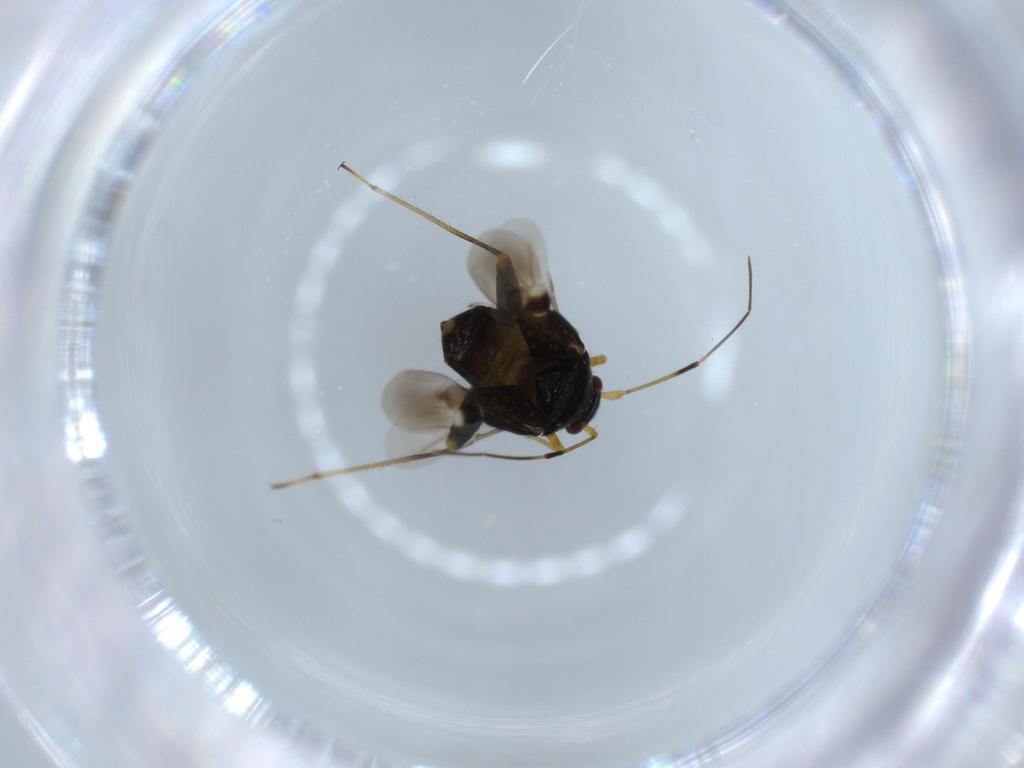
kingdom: Animalia
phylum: Arthropoda
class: Insecta
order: Hemiptera
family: Miridae
